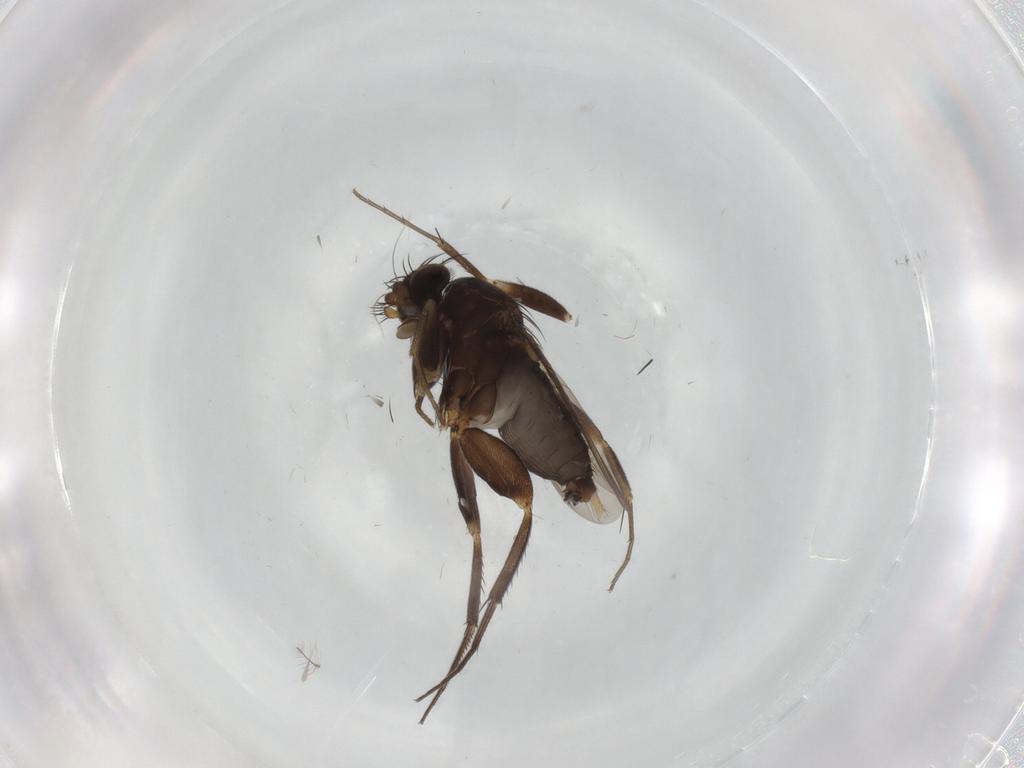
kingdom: Animalia
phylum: Arthropoda
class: Insecta
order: Diptera
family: Phoridae
